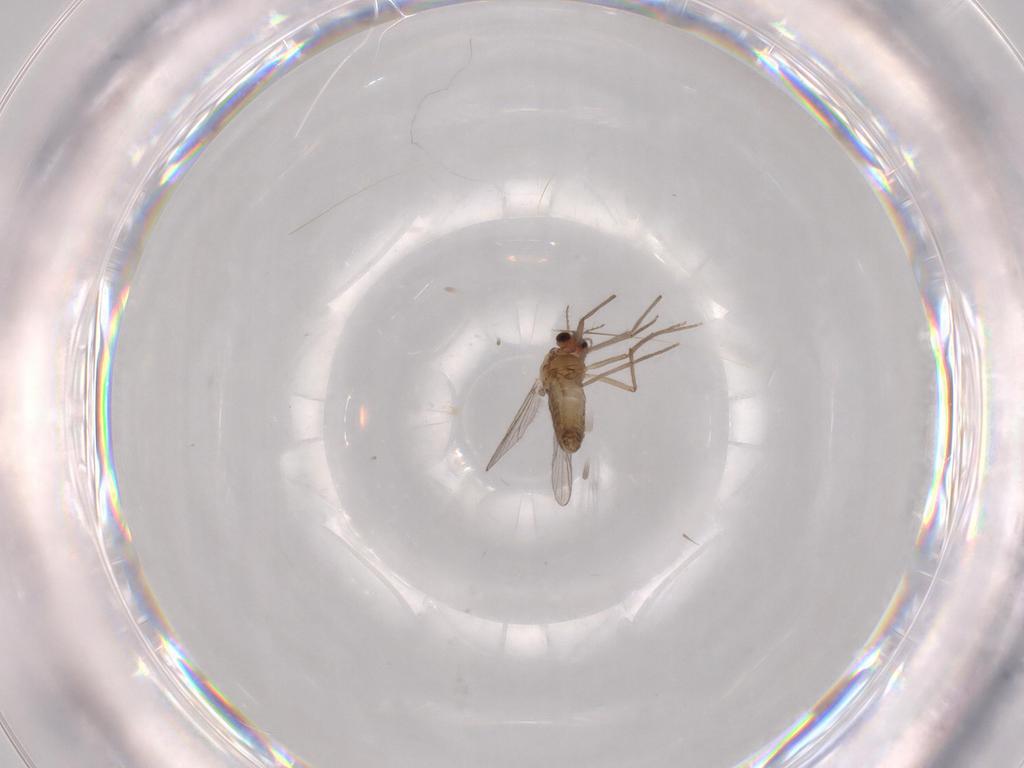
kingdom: Animalia
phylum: Arthropoda
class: Insecta
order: Diptera
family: Chironomidae
